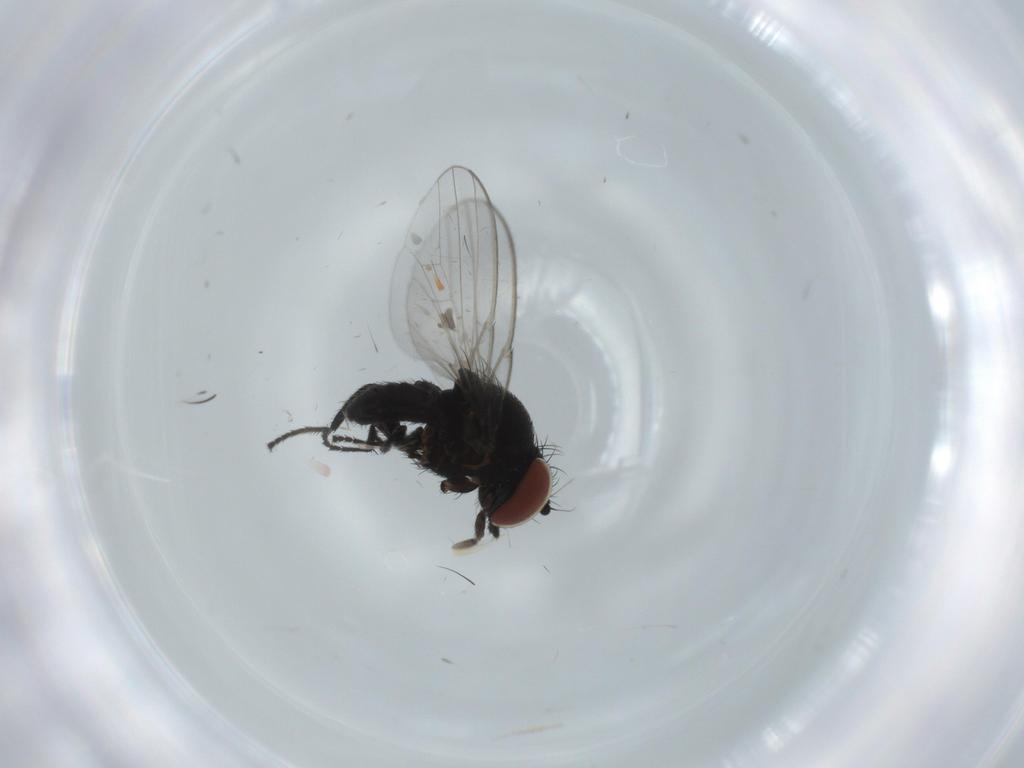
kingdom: Animalia
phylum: Arthropoda
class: Insecta
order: Diptera
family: Milichiidae
